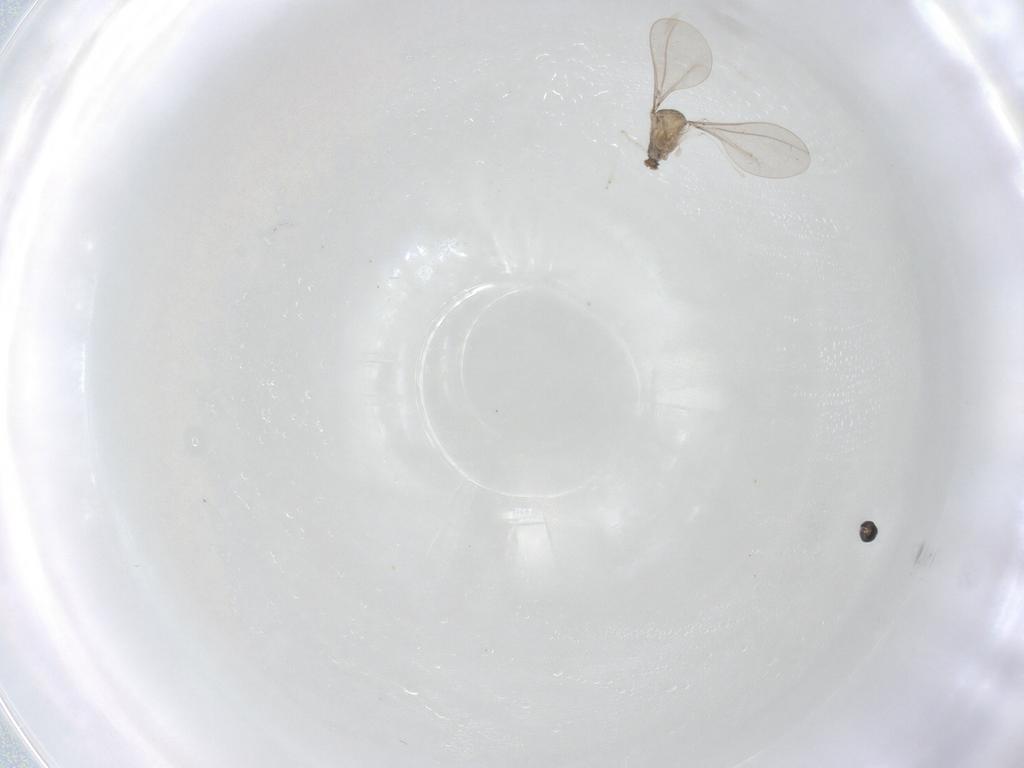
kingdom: Animalia
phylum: Arthropoda
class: Insecta
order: Diptera
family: Cecidomyiidae
